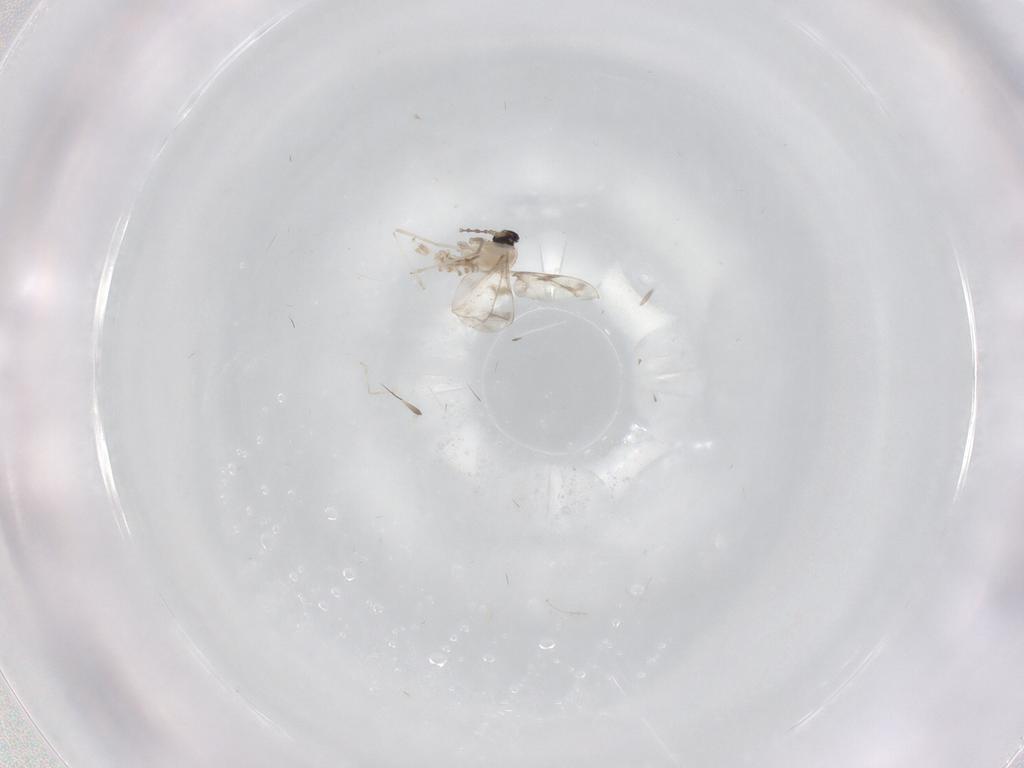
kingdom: Animalia
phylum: Arthropoda
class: Insecta
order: Diptera
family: Cecidomyiidae
